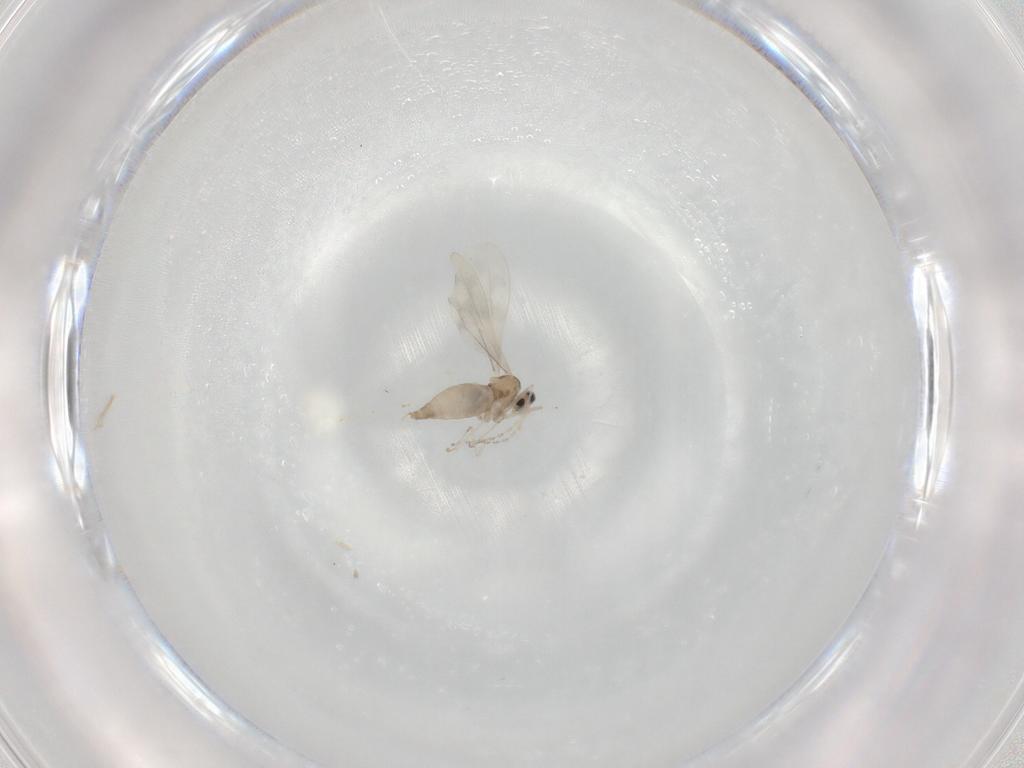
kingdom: Animalia
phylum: Arthropoda
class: Insecta
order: Diptera
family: Cecidomyiidae
